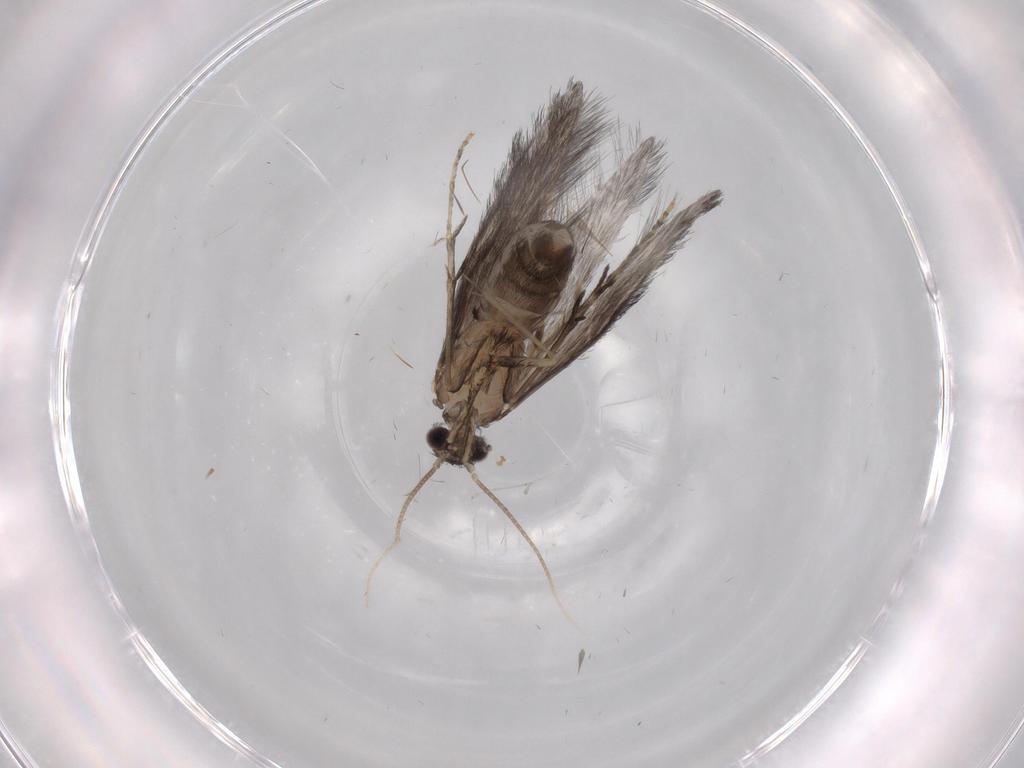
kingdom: Animalia
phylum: Arthropoda
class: Insecta
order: Trichoptera
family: Hydroptilidae
